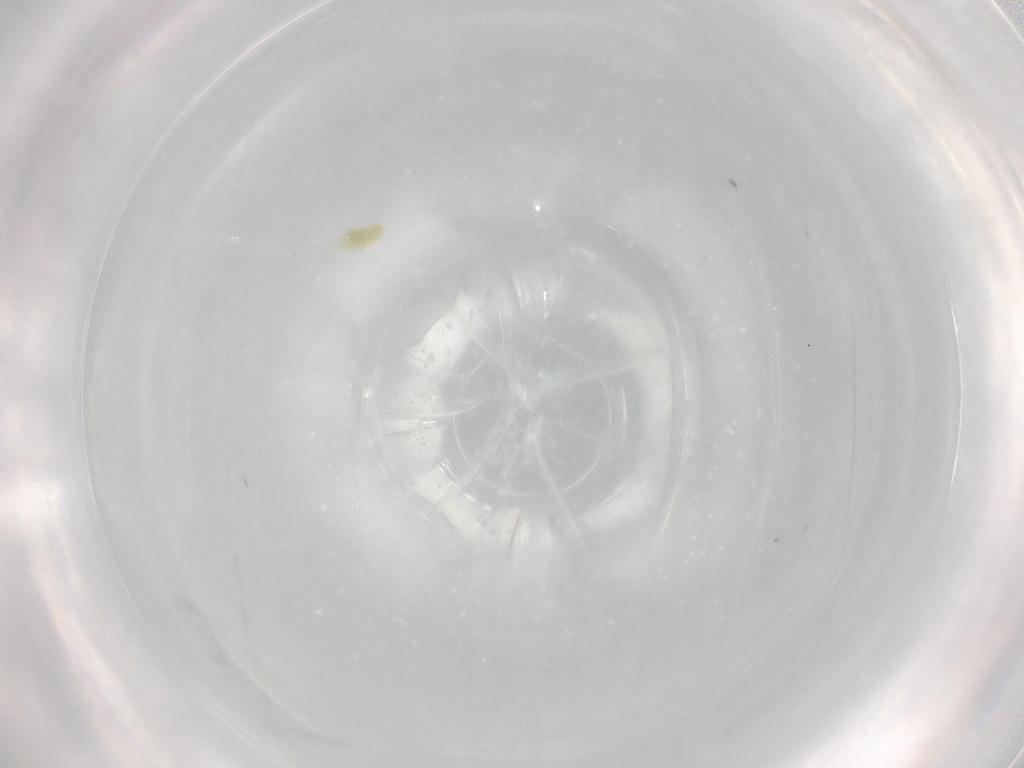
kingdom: Animalia
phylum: Arthropoda
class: Arachnida
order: Trombidiformes
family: Eupodidae
